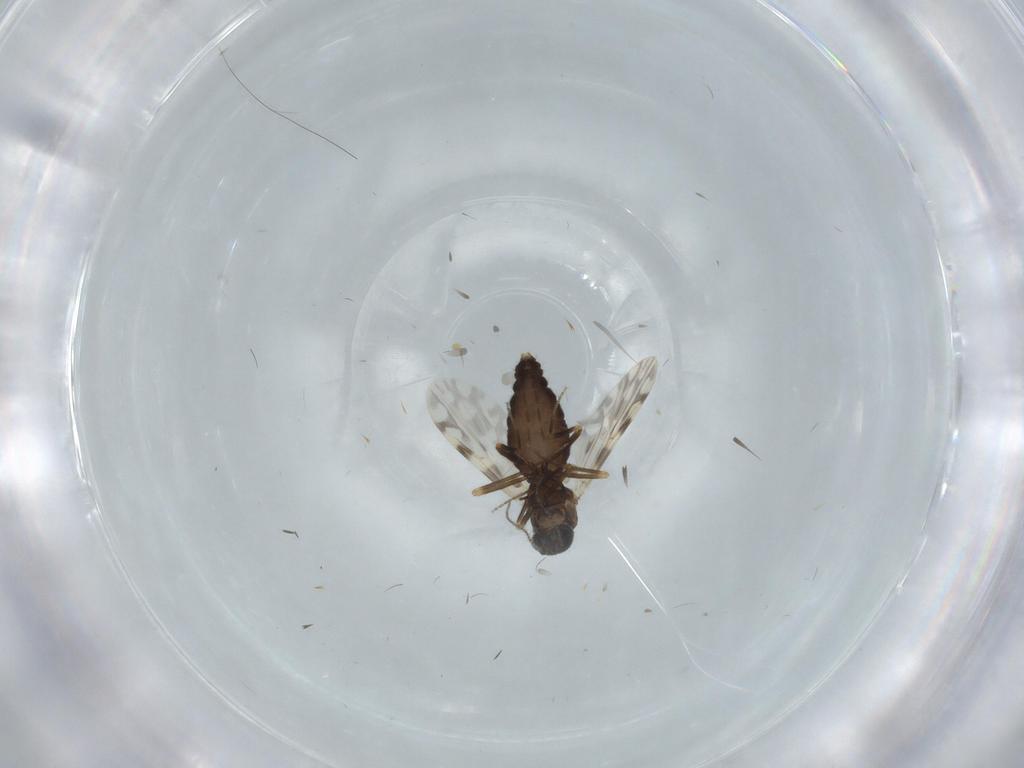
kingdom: Animalia
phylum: Arthropoda
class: Insecta
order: Diptera
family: Ceratopogonidae
